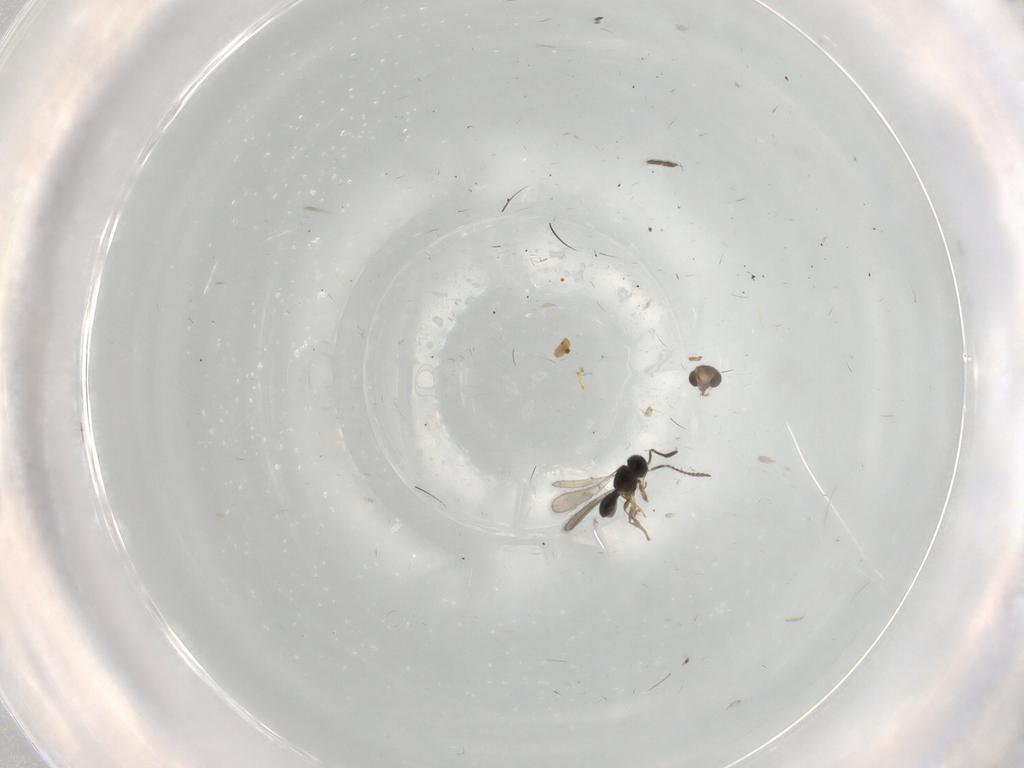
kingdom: Animalia
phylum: Arthropoda
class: Insecta
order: Hymenoptera
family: Scelionidae
